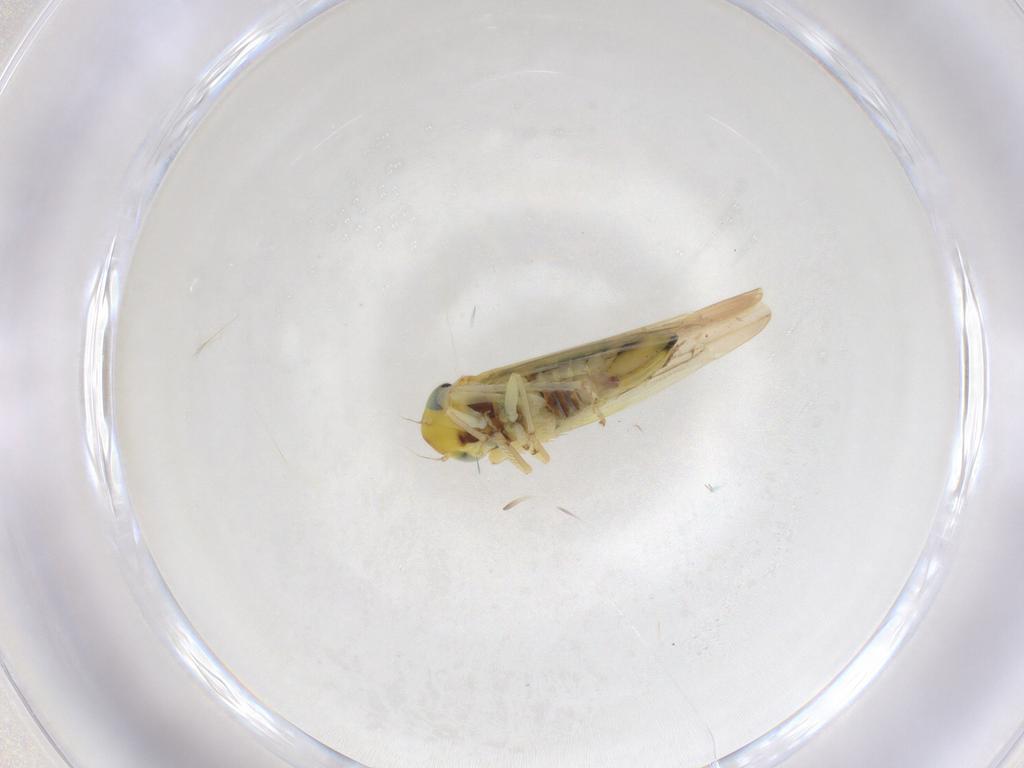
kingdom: Animalia
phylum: Arthropoda
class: Insecta
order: Hemiptera
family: Cicadellidae
